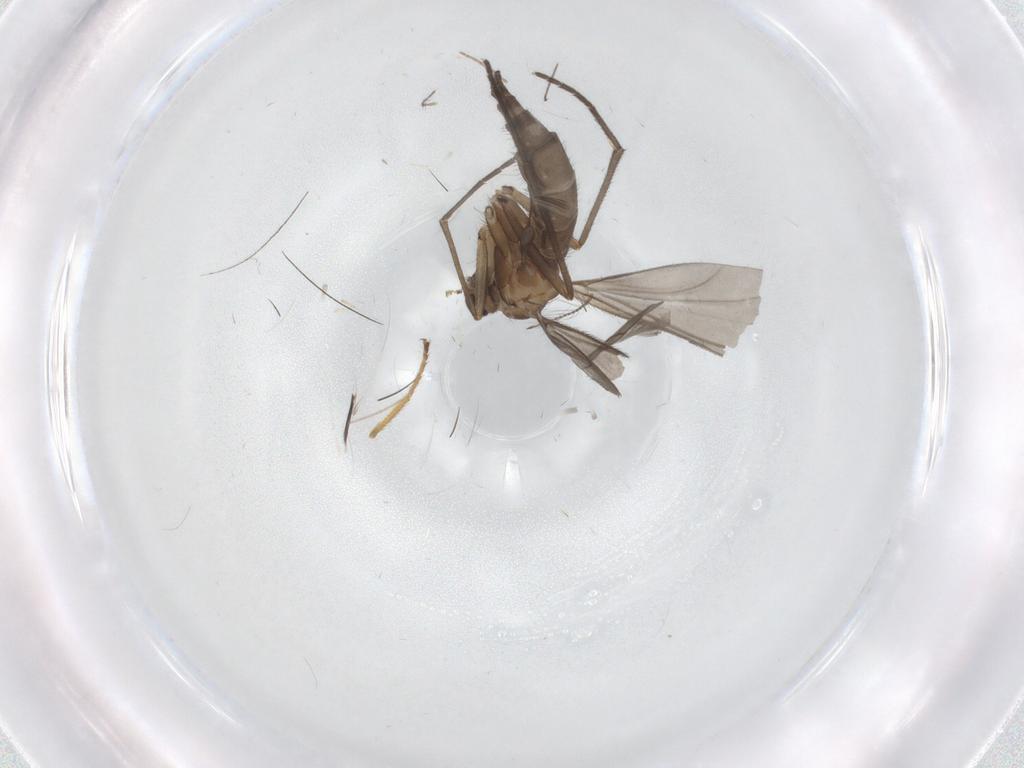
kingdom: Animalia
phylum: Arthropoda
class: Insecta
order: Diptera
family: Sciaridae
